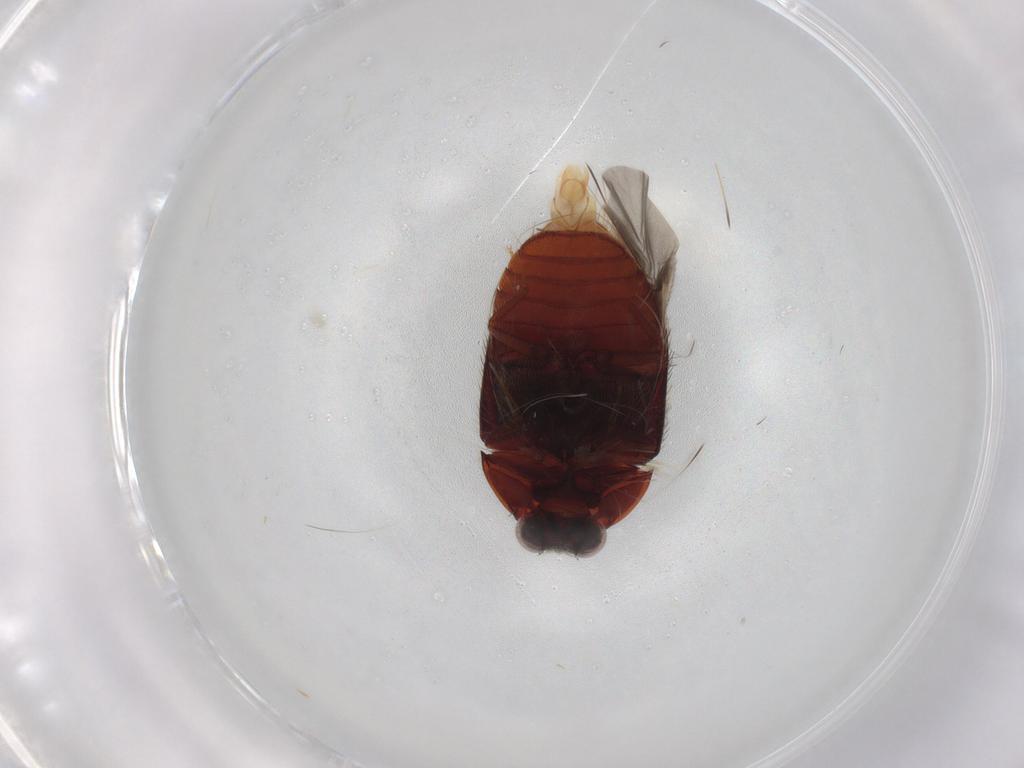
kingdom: Animalia
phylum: Arthropoda
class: Insecta
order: Coleoptera
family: Dermestidae
